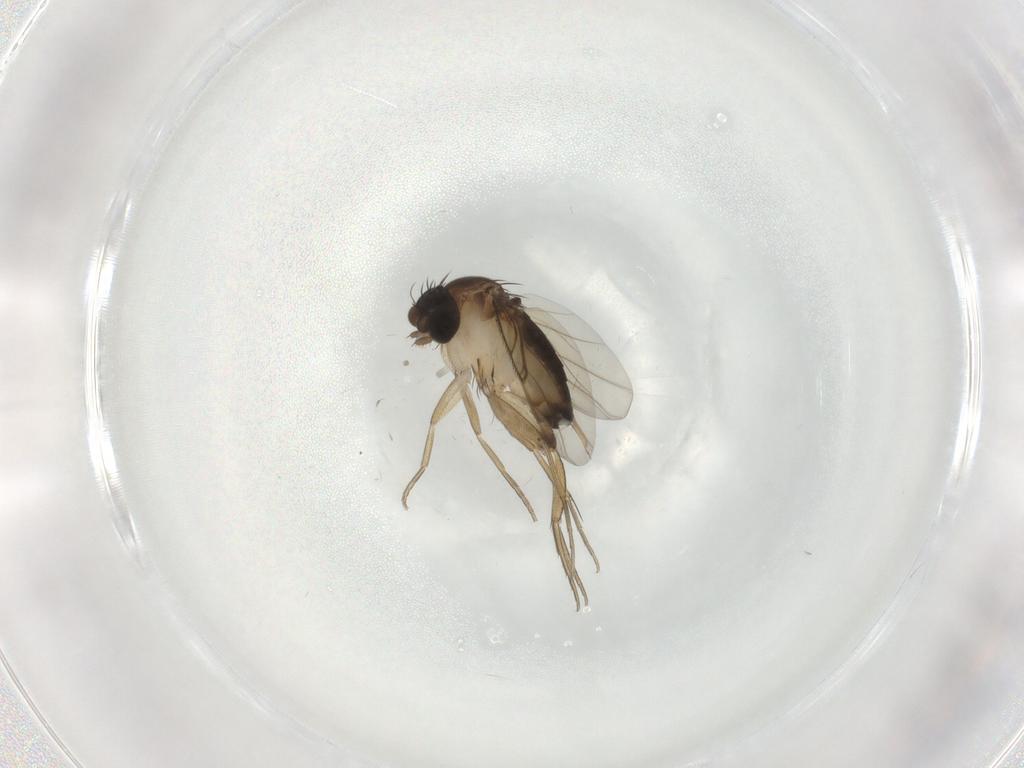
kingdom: Animalia
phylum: Arthropoda
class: Insecta
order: Diptera
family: Phoridae
